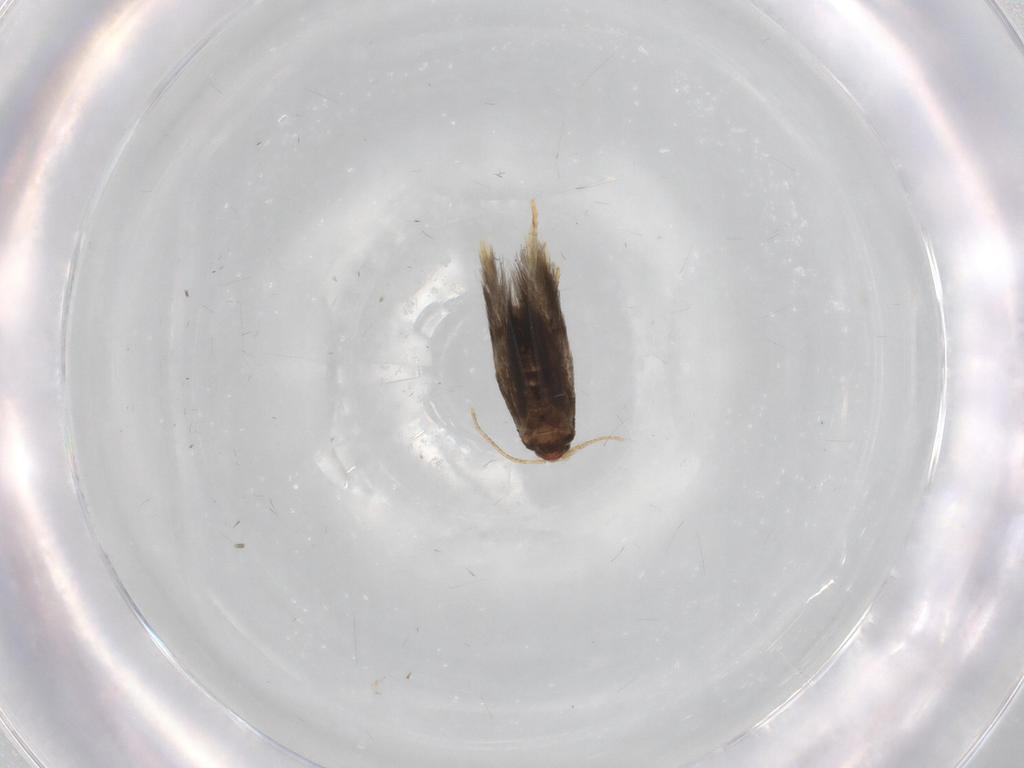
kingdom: Animalia
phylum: Arthropoda
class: Insecta
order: Lepidoptera
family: Copromorphidae
